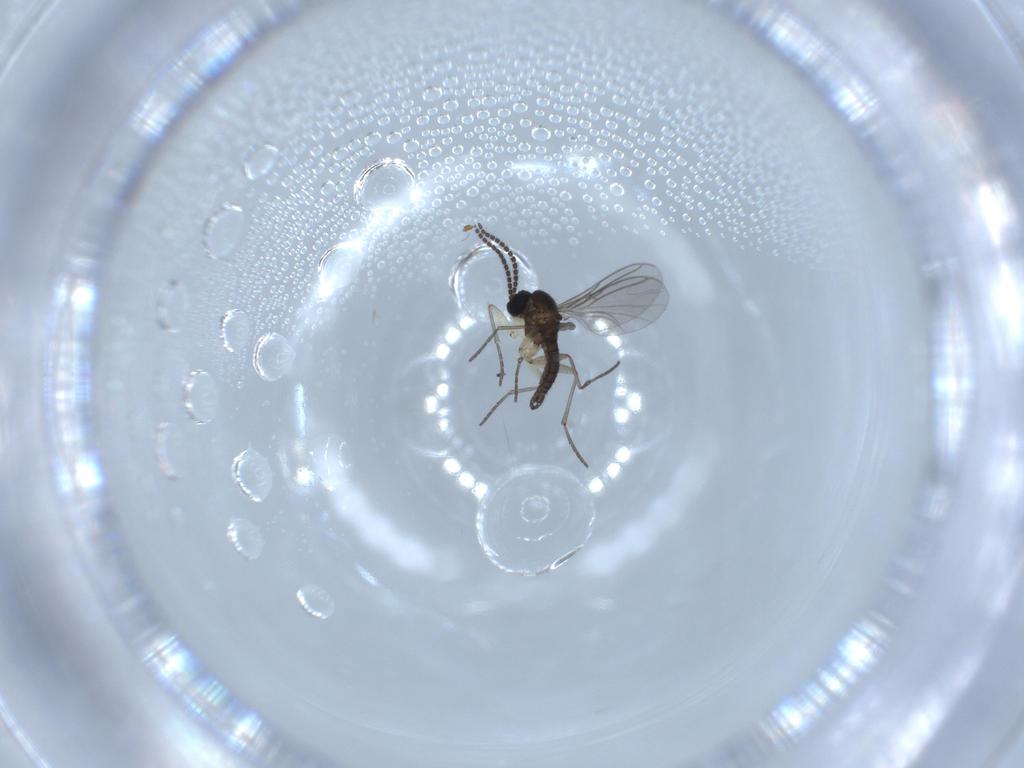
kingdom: Animalia
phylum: Arthropoda
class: Insecta
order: Diptera
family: Sciaridae
